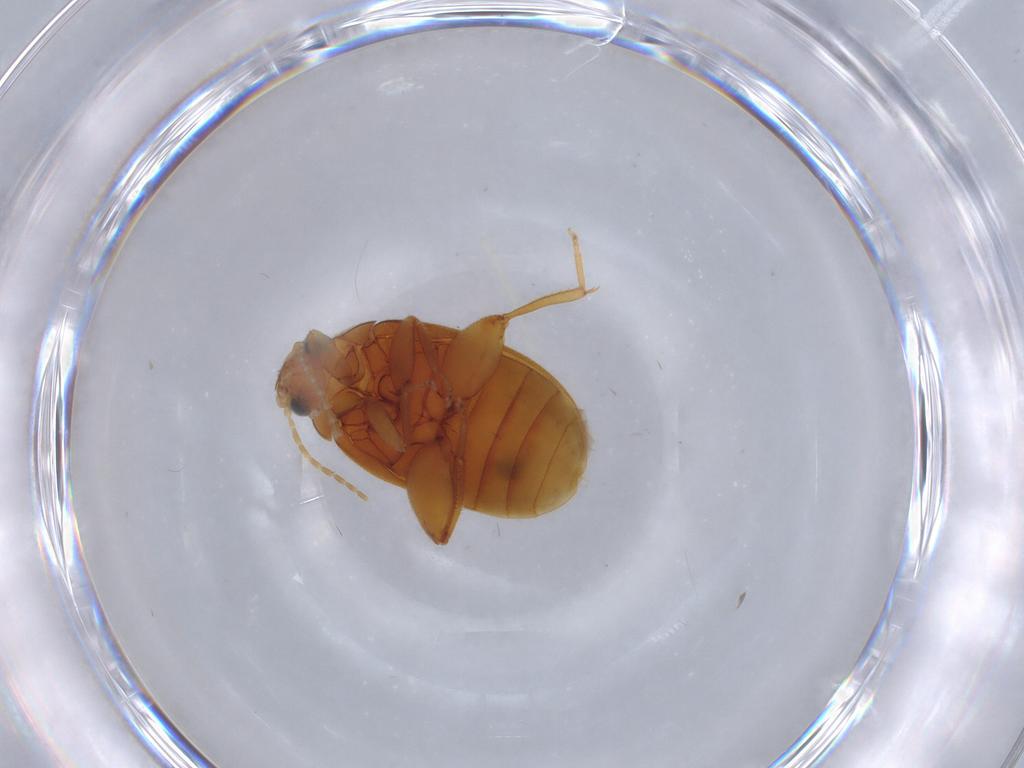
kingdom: Animalia
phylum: Arthropoda
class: Insecta
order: Coleoptera
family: Scirtidae
